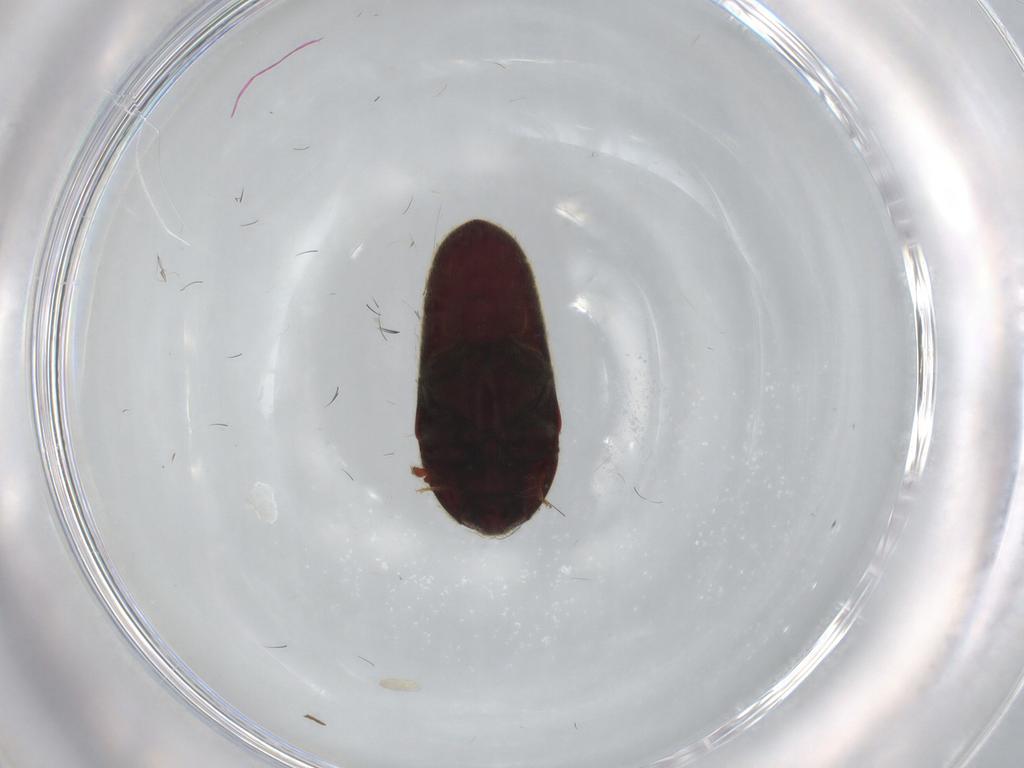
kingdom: Animalia
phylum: Arthropoda
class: Insecta
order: Coleoptera
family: Throscidae
